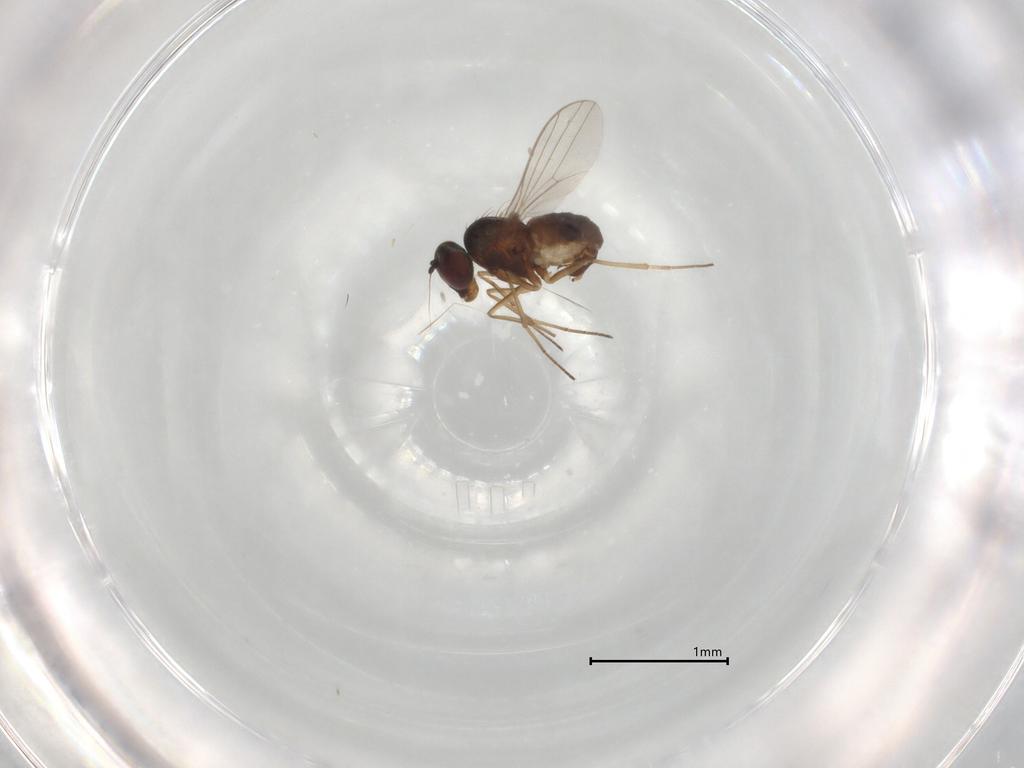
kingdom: Animalia
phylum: Arthropoda
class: Insecta
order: Diptera
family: Dolichopodidae
